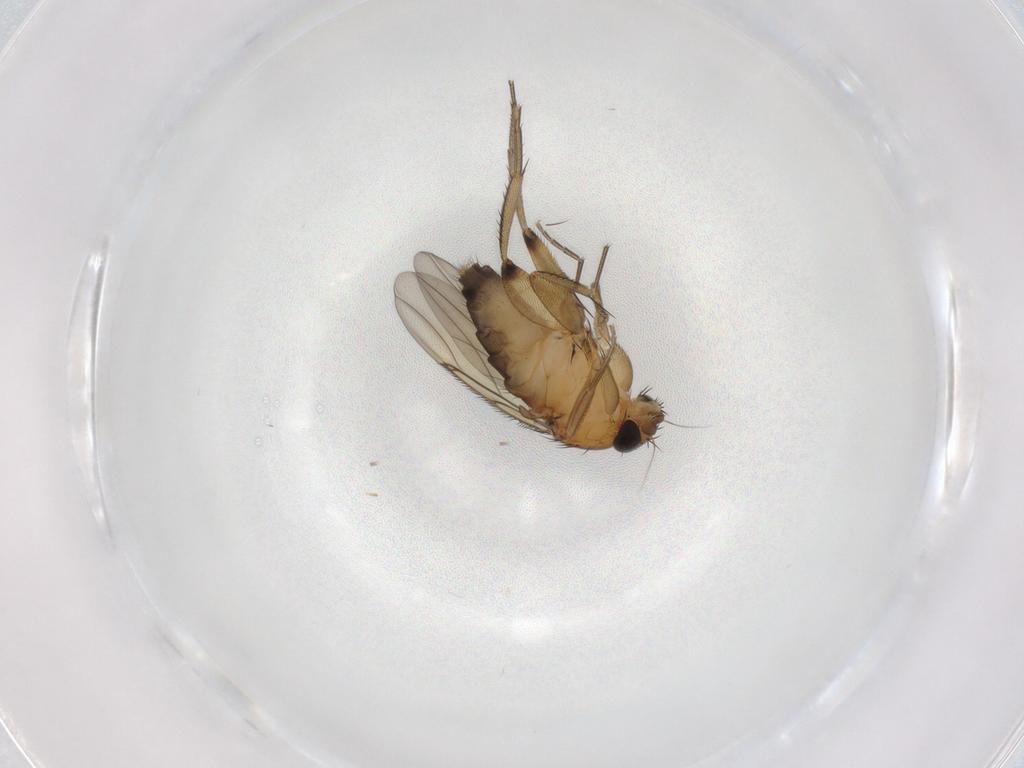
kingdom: Animalia
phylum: Arthropoda
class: Insecta
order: Diptera
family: Phoridae
